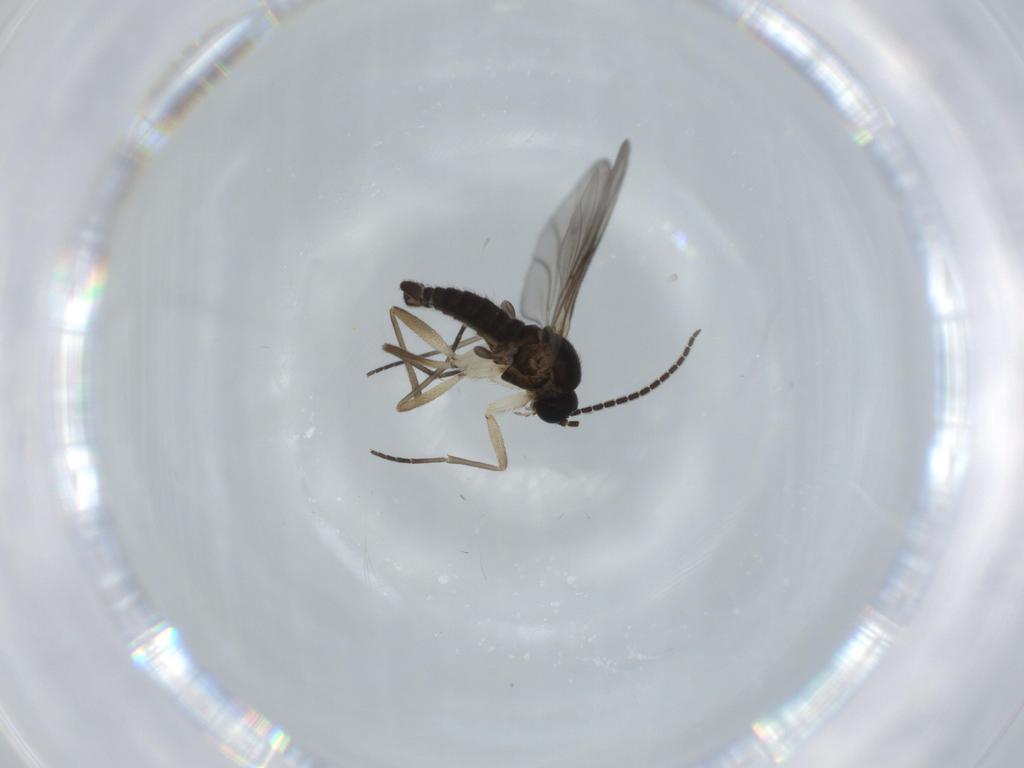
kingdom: Animalia
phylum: Arthropoda
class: Insecta
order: Diptera
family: Sciaridae
